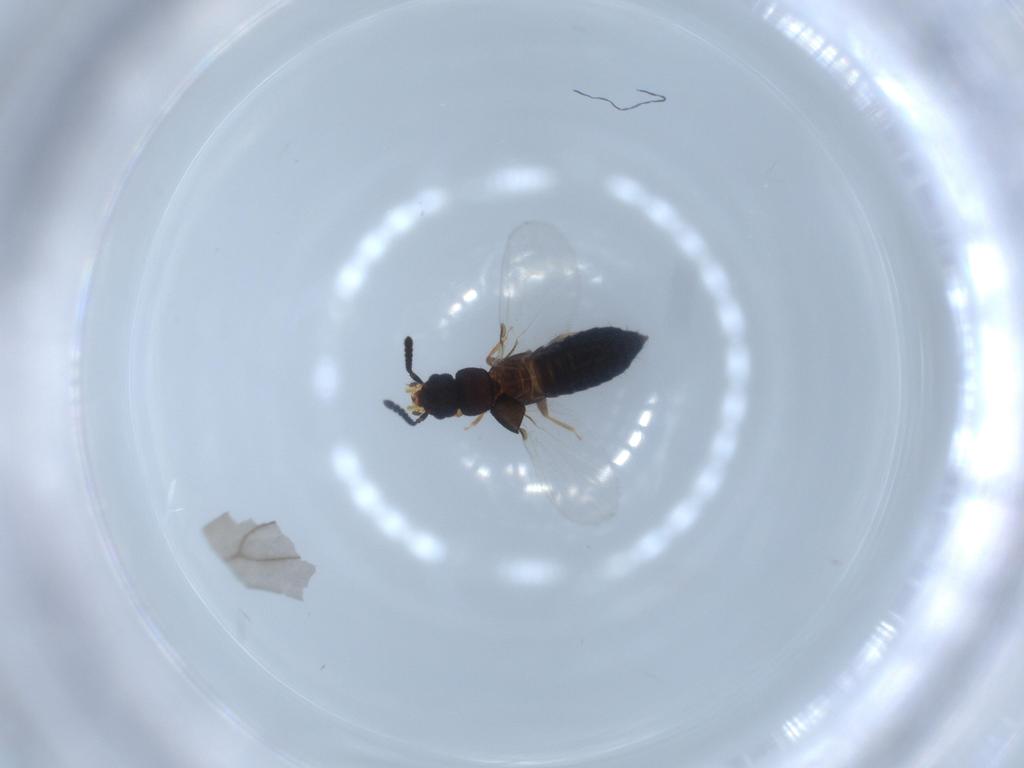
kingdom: Animalia
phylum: Arthropoda
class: Insecta
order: Coleoptera
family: Staphylinidae
